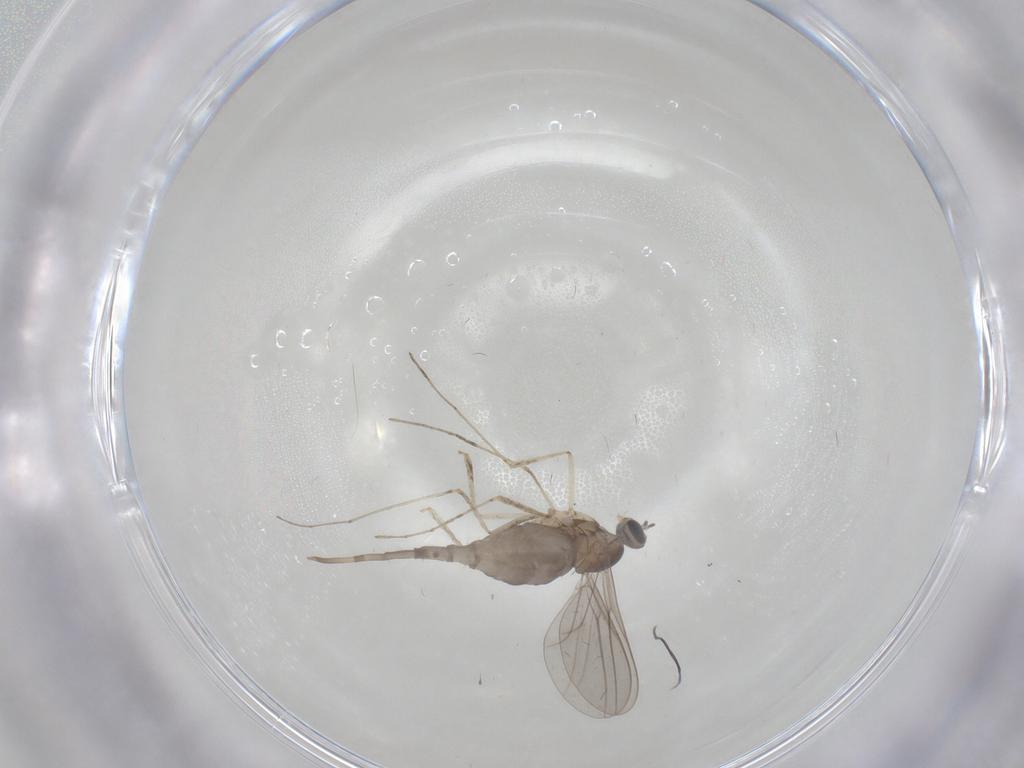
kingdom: Animalia
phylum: Arthropoda
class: Insecta
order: Diptera
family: Cecidomyiidae
